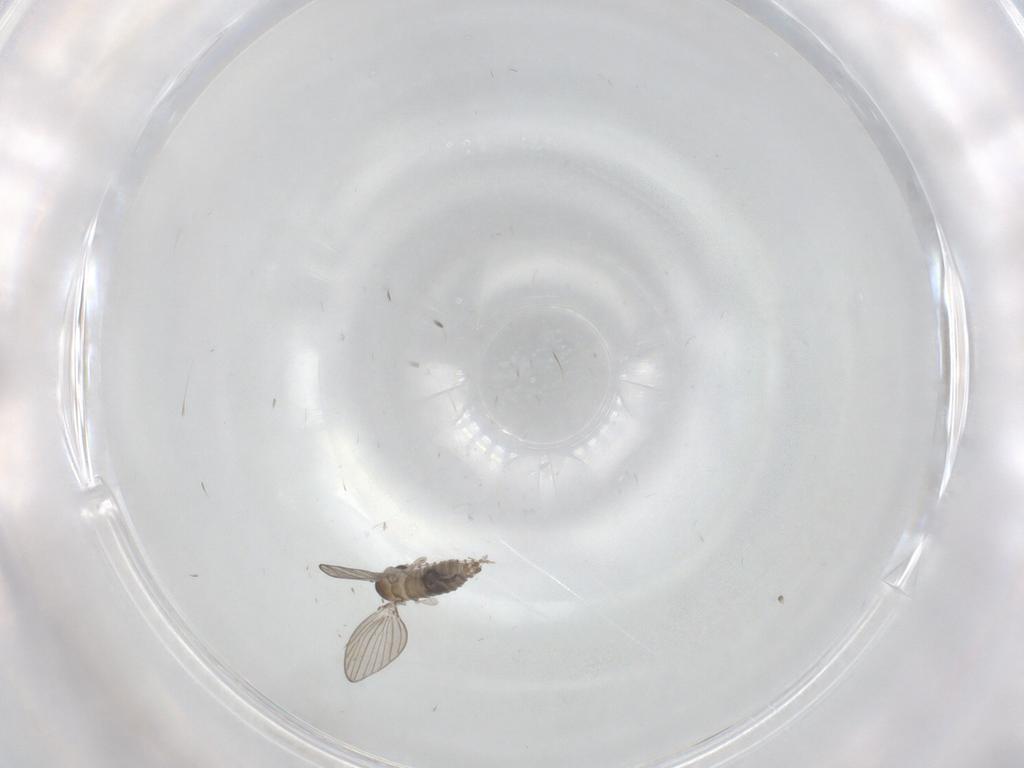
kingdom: Animalia
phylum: Arthropoda
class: Insecta
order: Diptera
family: Psychodidae
